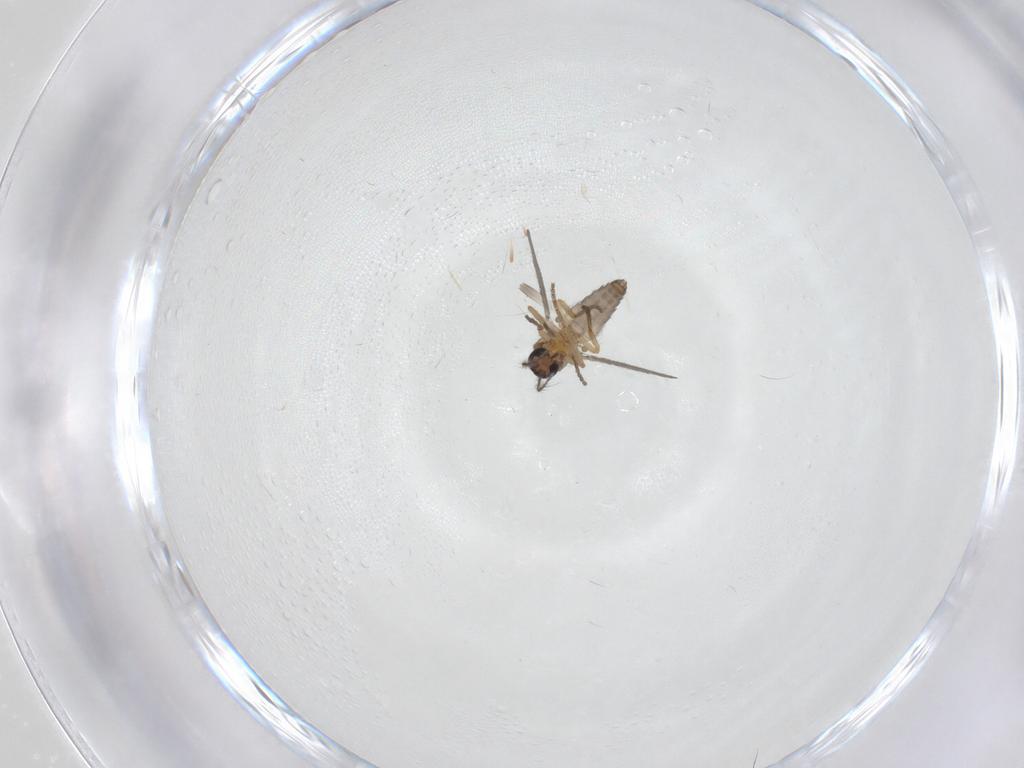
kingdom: Animalia
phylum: Arthropoda
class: Insecta
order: Diptera
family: Ceratopogonidae
